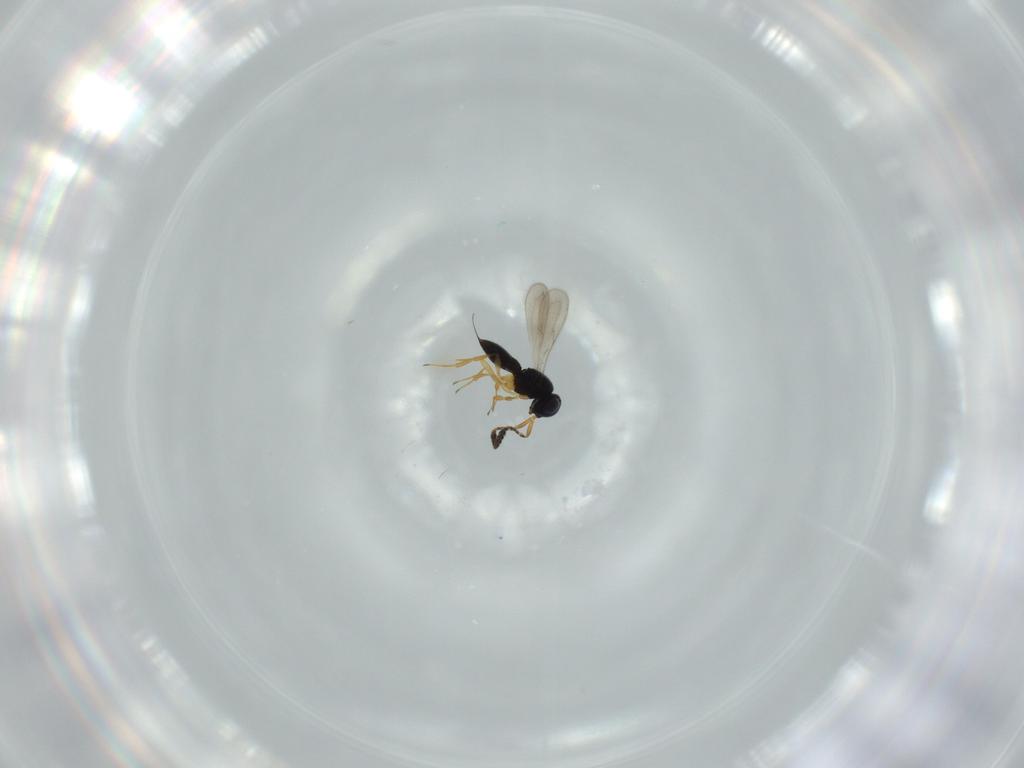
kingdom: Animalia
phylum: Arthropoda
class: Insecta
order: Hymenoptera
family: Scelionidae
